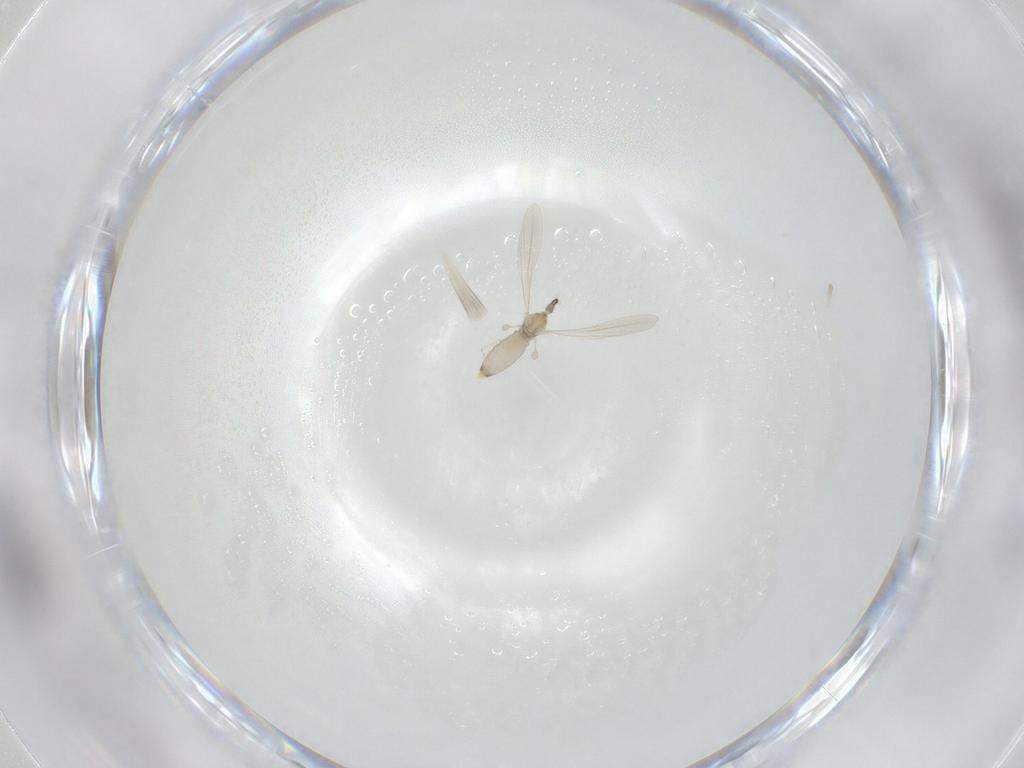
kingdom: Animalia
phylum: Arthropoda
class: Insecta
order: Diptera
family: Cecidomyiidae
